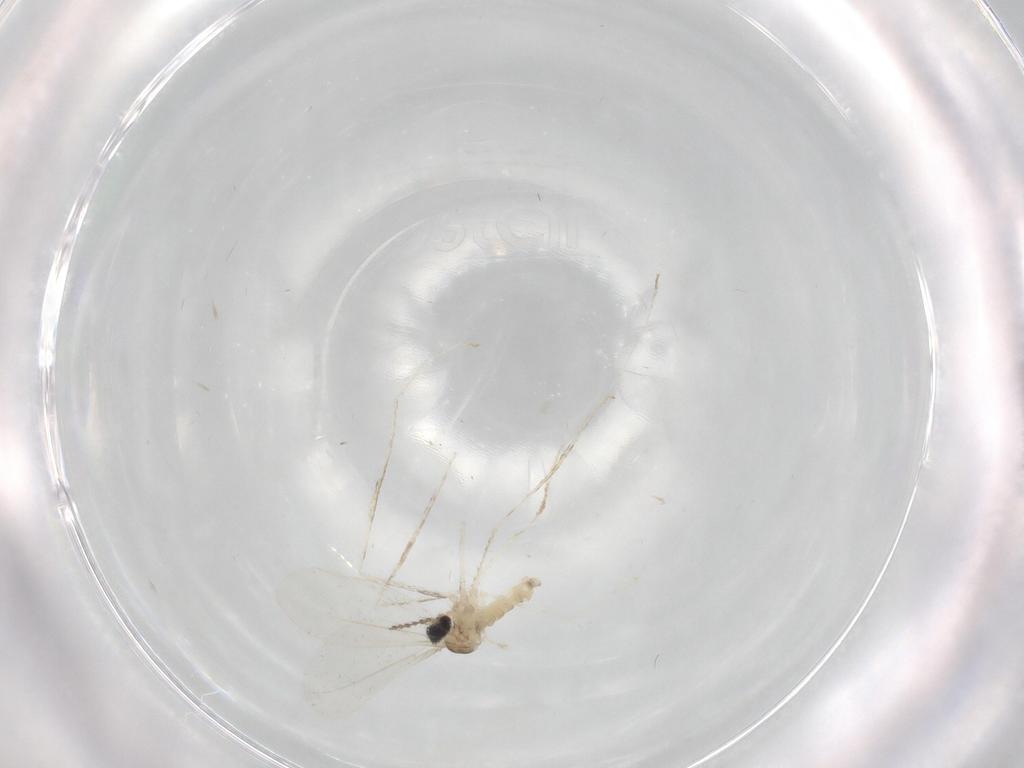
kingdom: Animalia
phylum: Arthropoda
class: Insecta
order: Diptera
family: Cecidomyiidae
